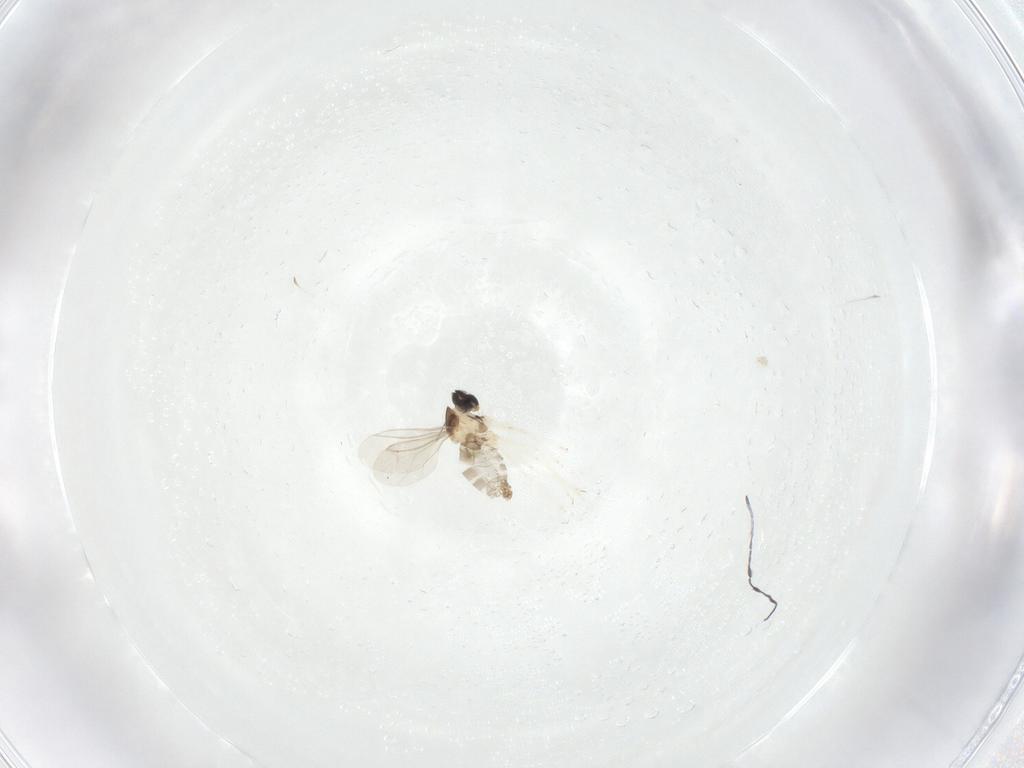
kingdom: Animalia
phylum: Arthropoda
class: Insecta
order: Diptera
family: Cecidomyiidae
